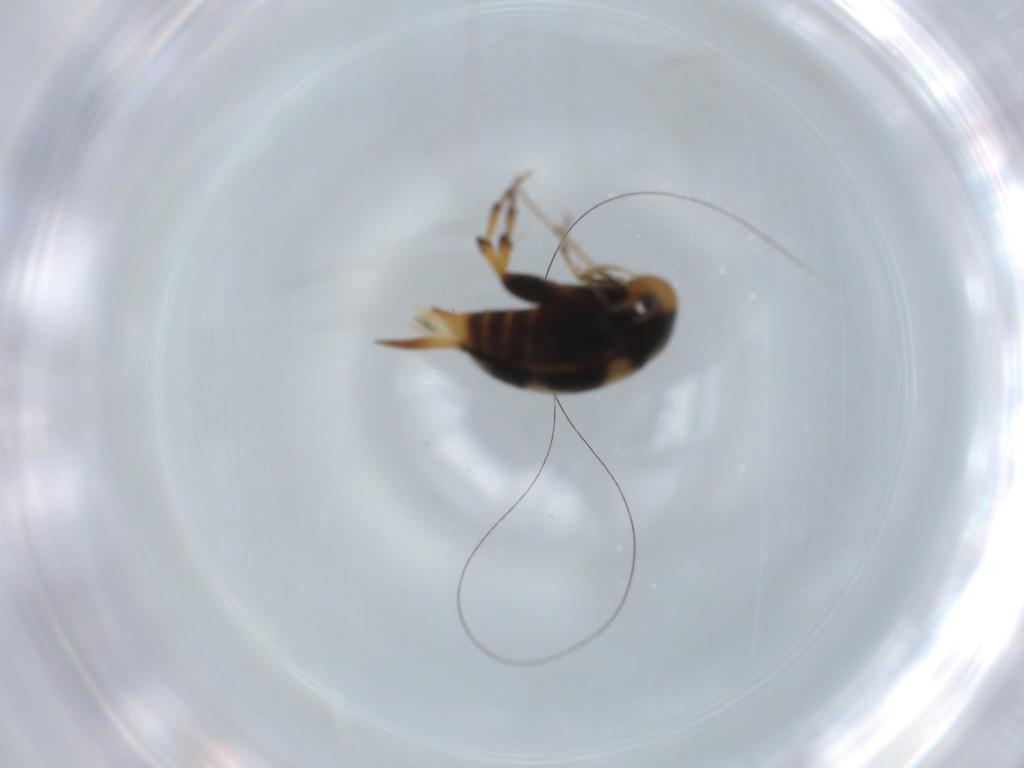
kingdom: Animalia
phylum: Arthropoda
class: Insecta
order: Coleoptera
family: Mordellidae
